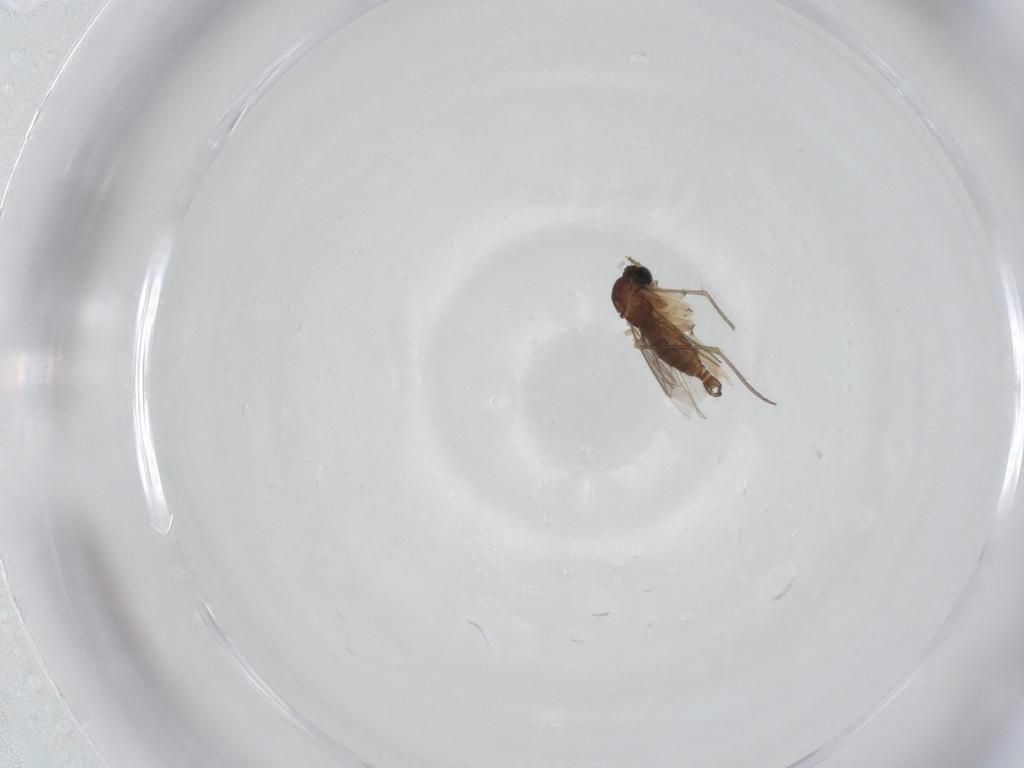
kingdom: Animalia
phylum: Arthropoda
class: Insecta
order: Diptera
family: Sciaridae
